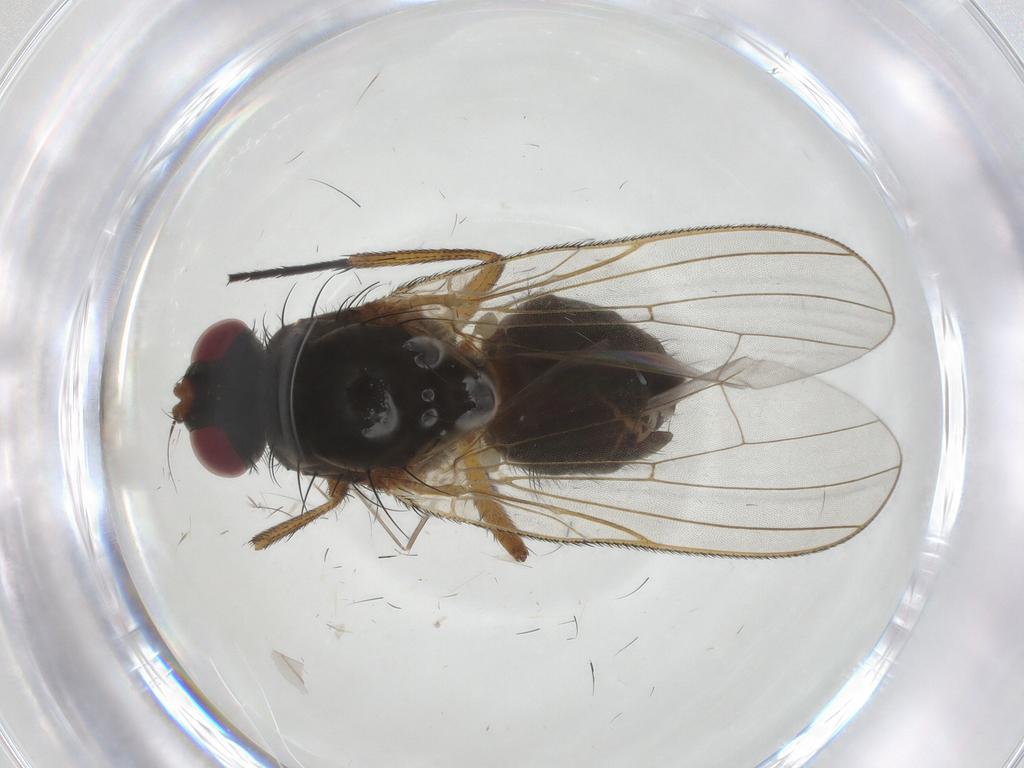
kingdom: Animalia
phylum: Arthropoda
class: Insecta
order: Diptera
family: Anthomyiidae
